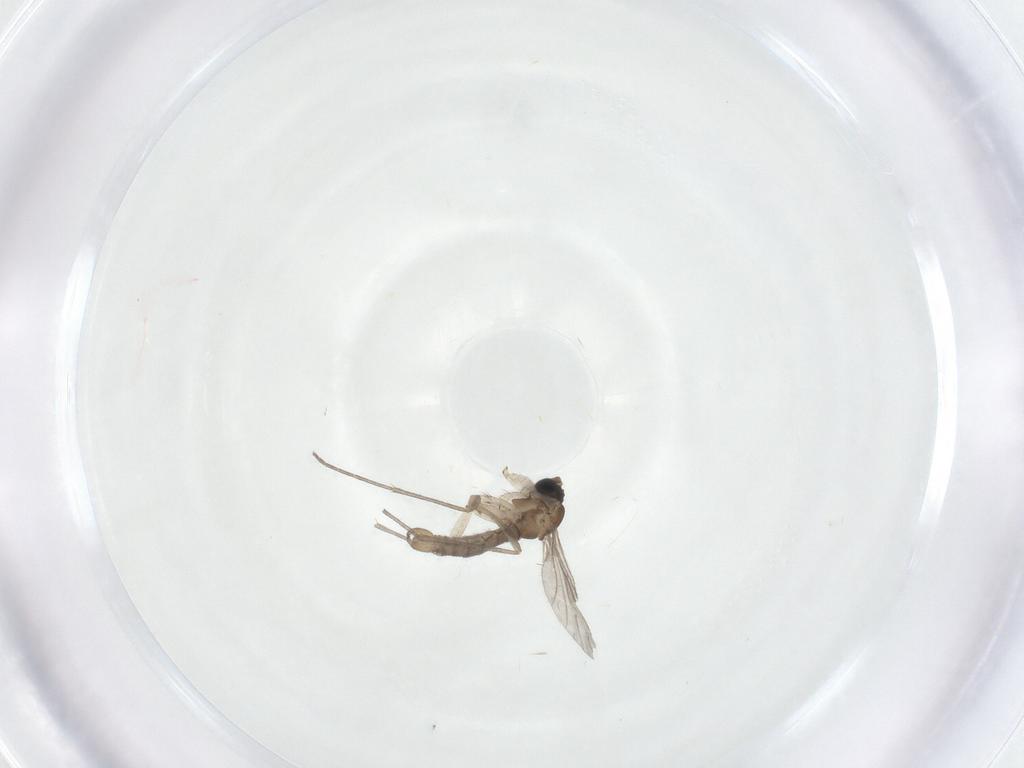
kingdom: Animalia
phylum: Arthropoda
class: Insecta
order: Diptera
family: Sciaridae
